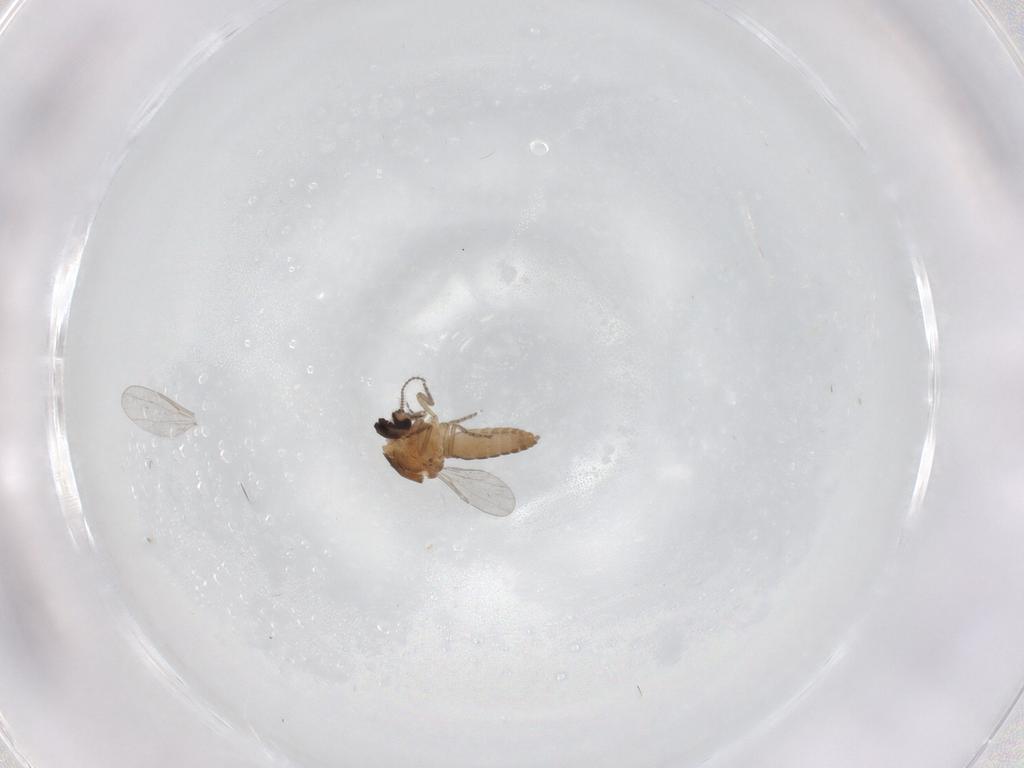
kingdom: Animalia
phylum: Arthropoda
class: Insecta
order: Diptera
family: Ceratopogonidae
